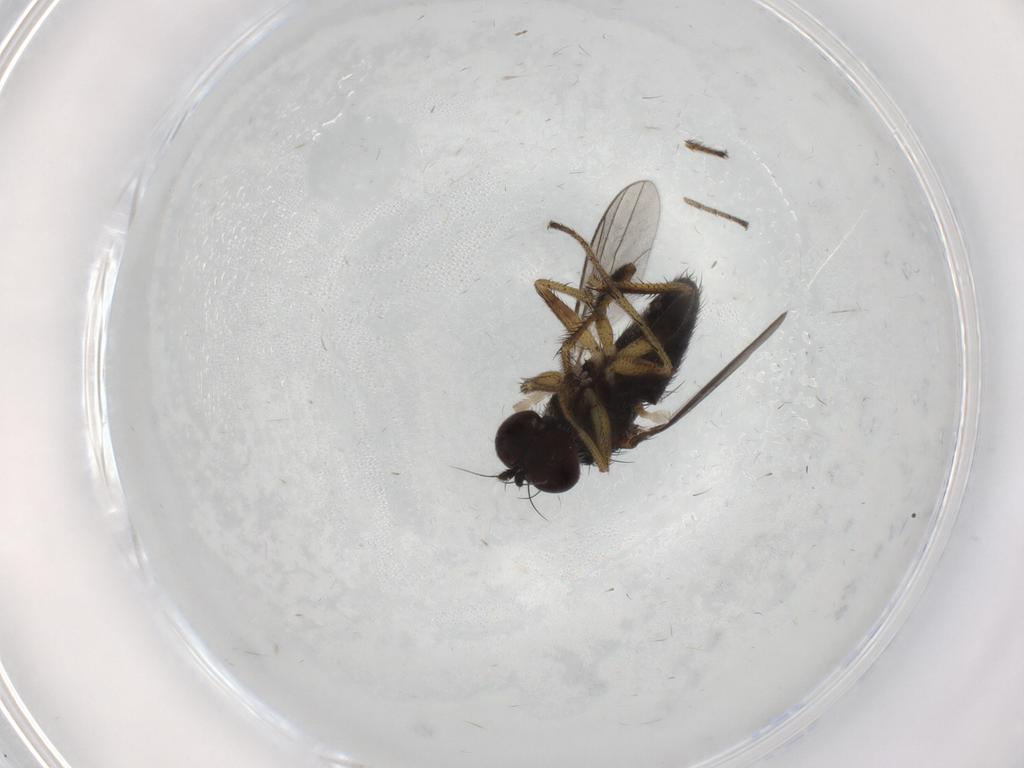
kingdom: Animalia
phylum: Arthropoda
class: Insecta
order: Diptera
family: Dolichopodidae
